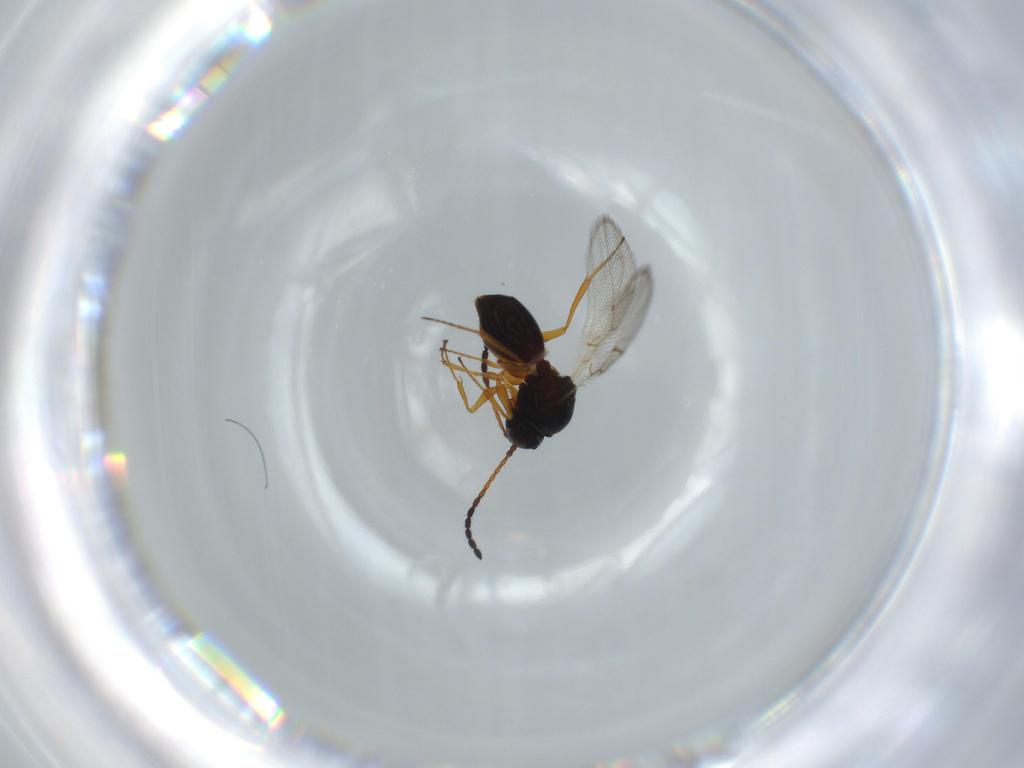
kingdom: Animalia
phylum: Arthropoda
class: Insecta
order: Hymenoptera
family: Figitidae
